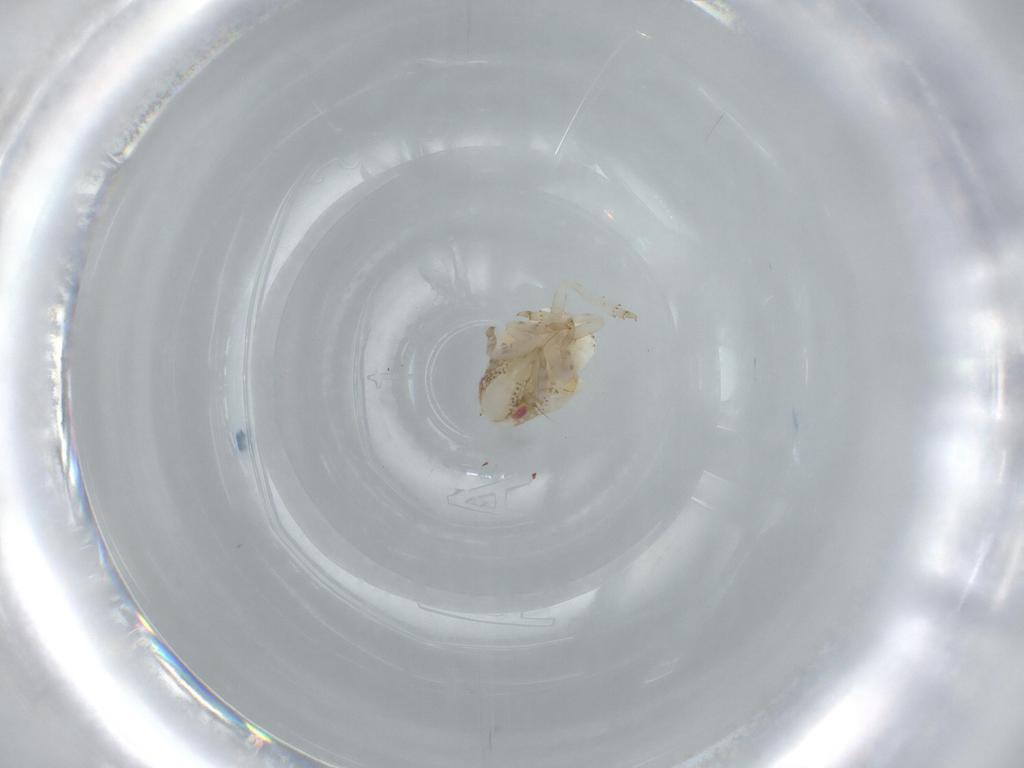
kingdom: Animalia
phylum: Arthropoda
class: Insecta
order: Hemiptera
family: Acanaloniidae
